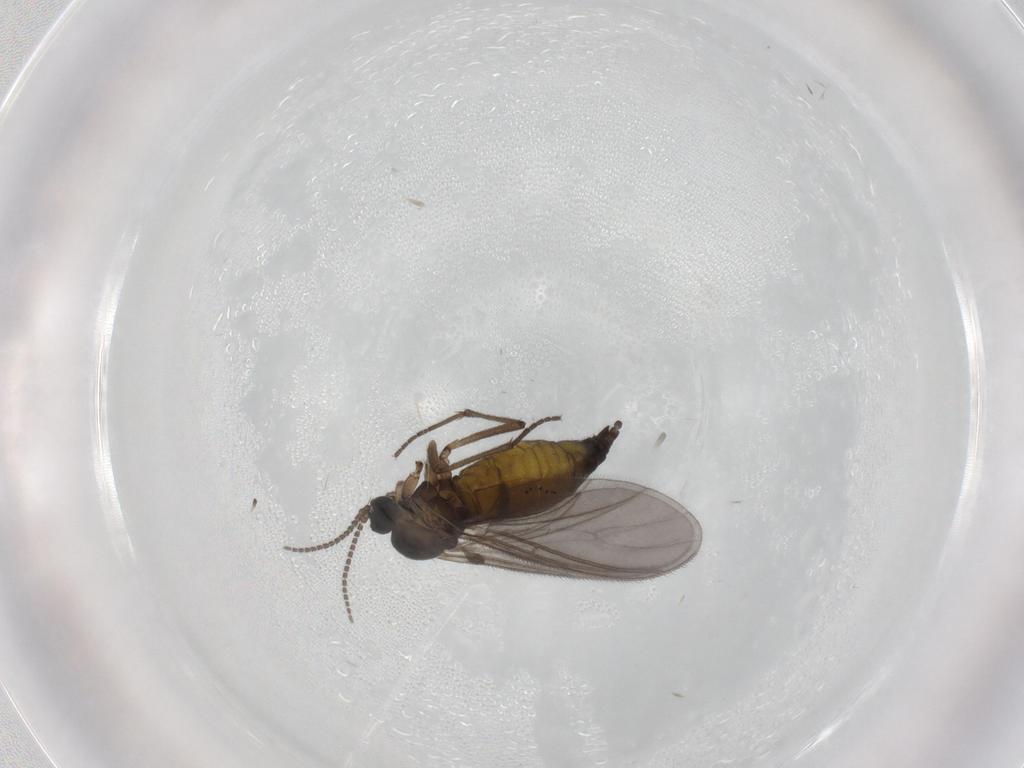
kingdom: Animalia
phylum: Arthropoda
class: Insecta
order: Diptera
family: Sciaridae
